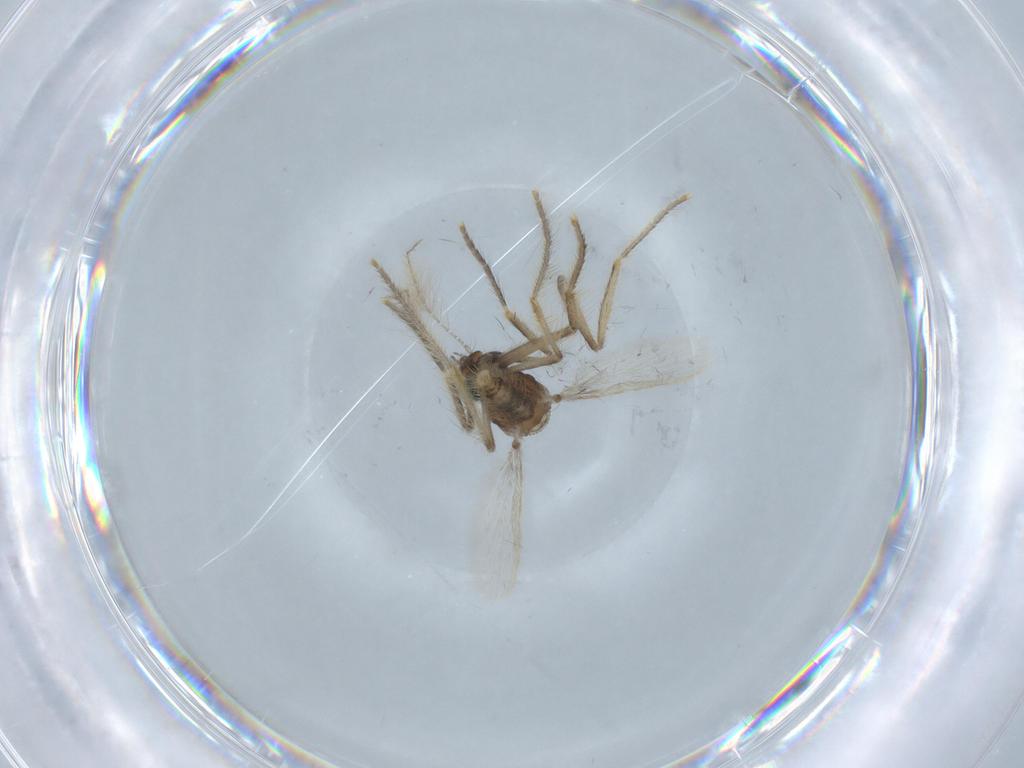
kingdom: Animalia
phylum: Arthropoda
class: Insecta
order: Diptera
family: Corethrellidae
